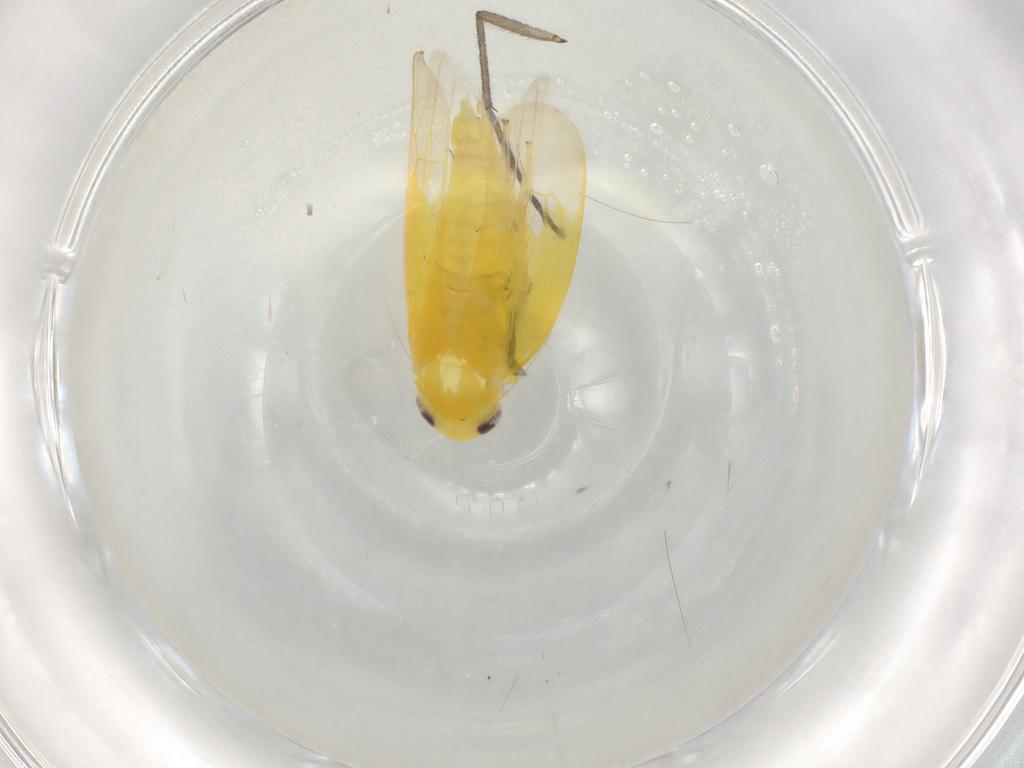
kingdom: Animalia
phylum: Arthropoda
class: Insecta
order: Hemiptera
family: Cicadellidae
